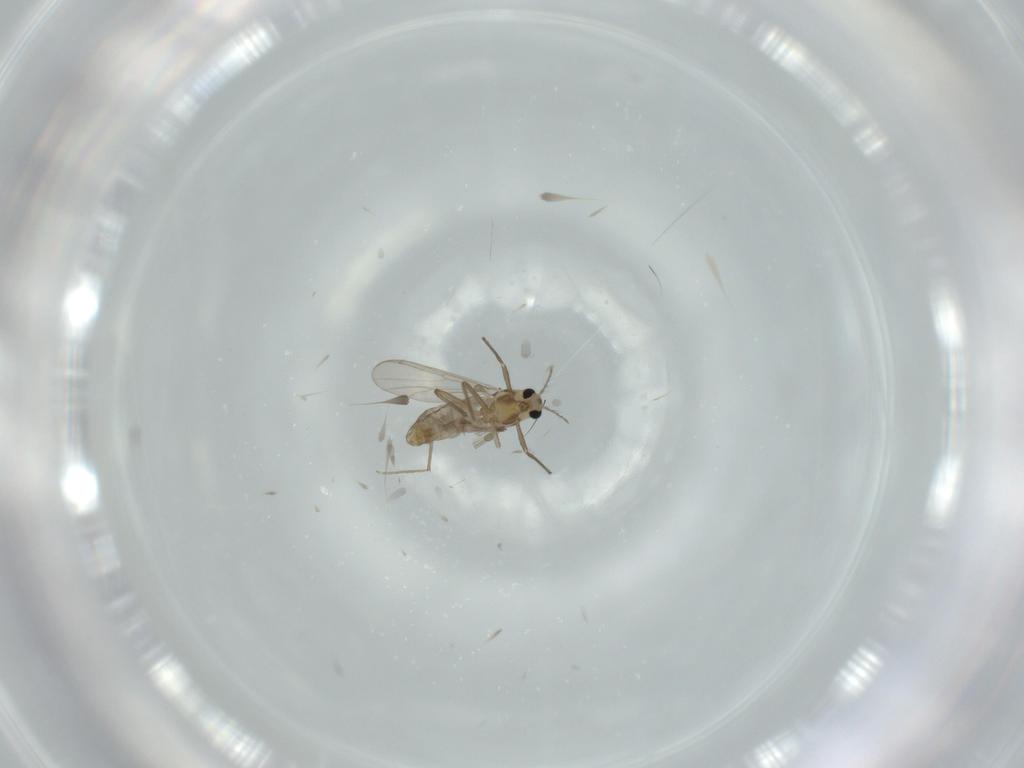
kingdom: Animalia
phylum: Arthropoda
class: Insecta
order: Diptera
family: Chironomidae
